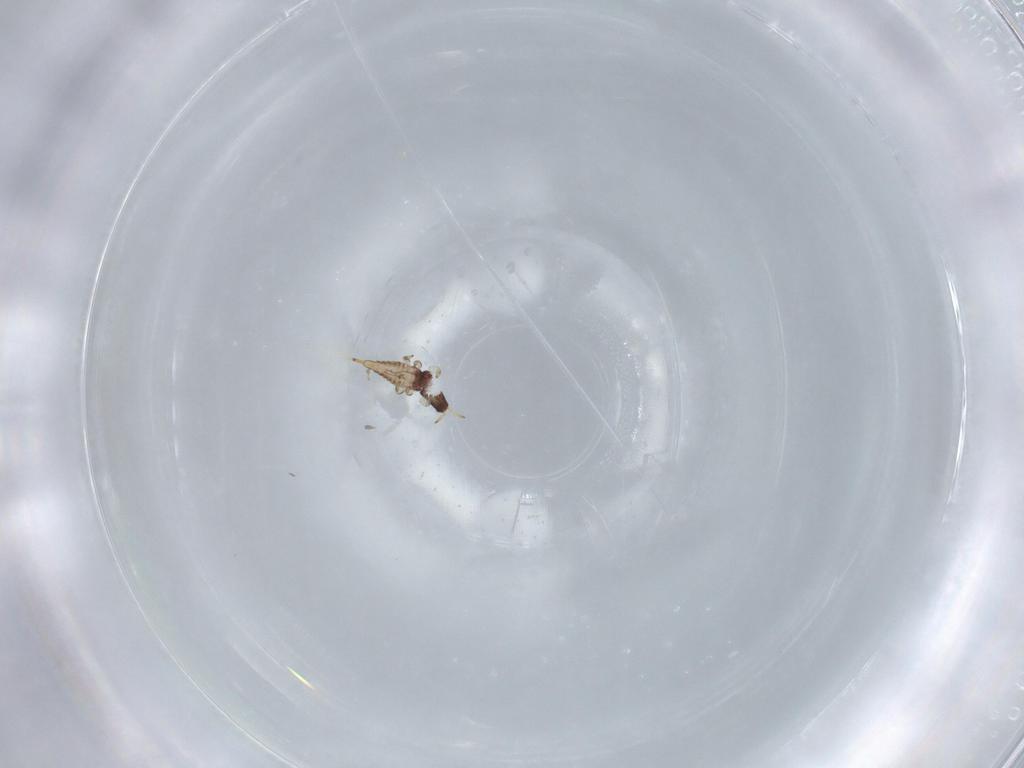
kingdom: Animalia
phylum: Arthropoda
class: Insecta
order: Thysanoptera
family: Phlaeothripidae
